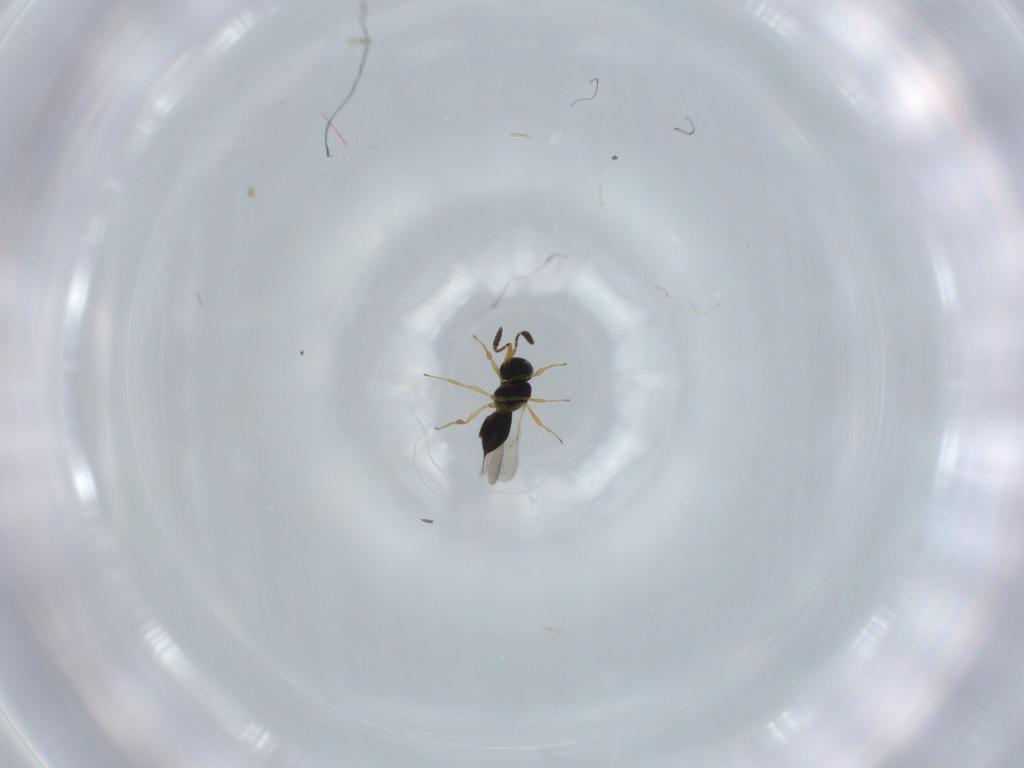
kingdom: Animalia
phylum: Arthropoda
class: Insecta
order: Hymenoptera
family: Scelionidae
